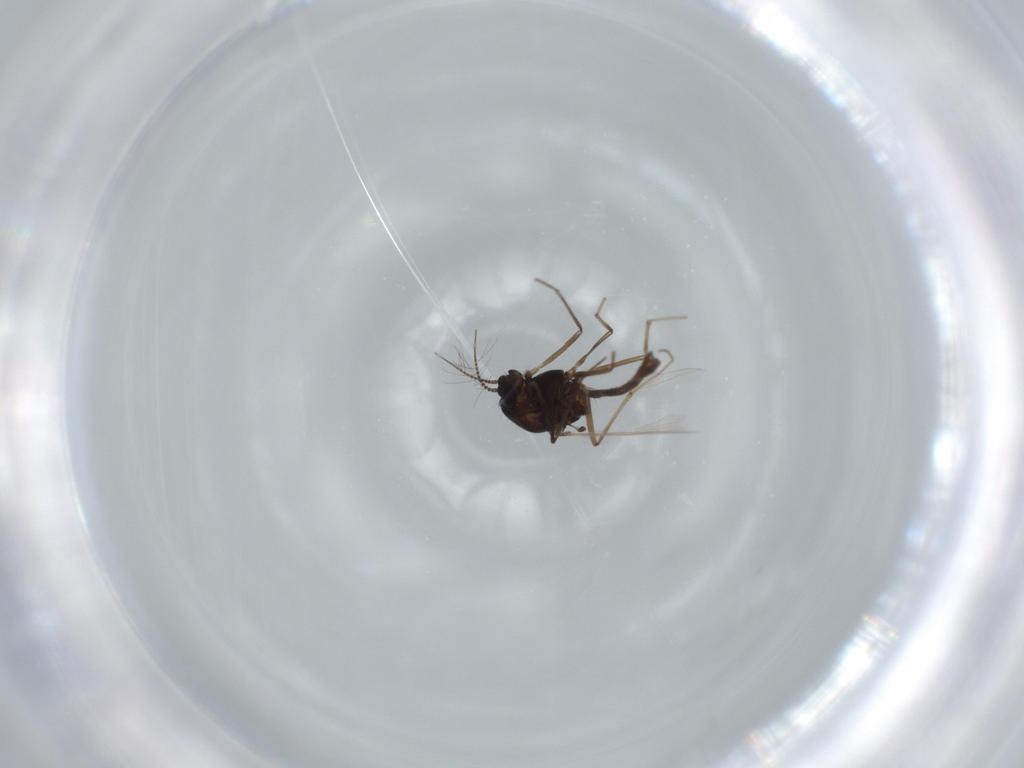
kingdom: Animalia
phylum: Arthropoda
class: Insecta
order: Diptera
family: Chironomidae
